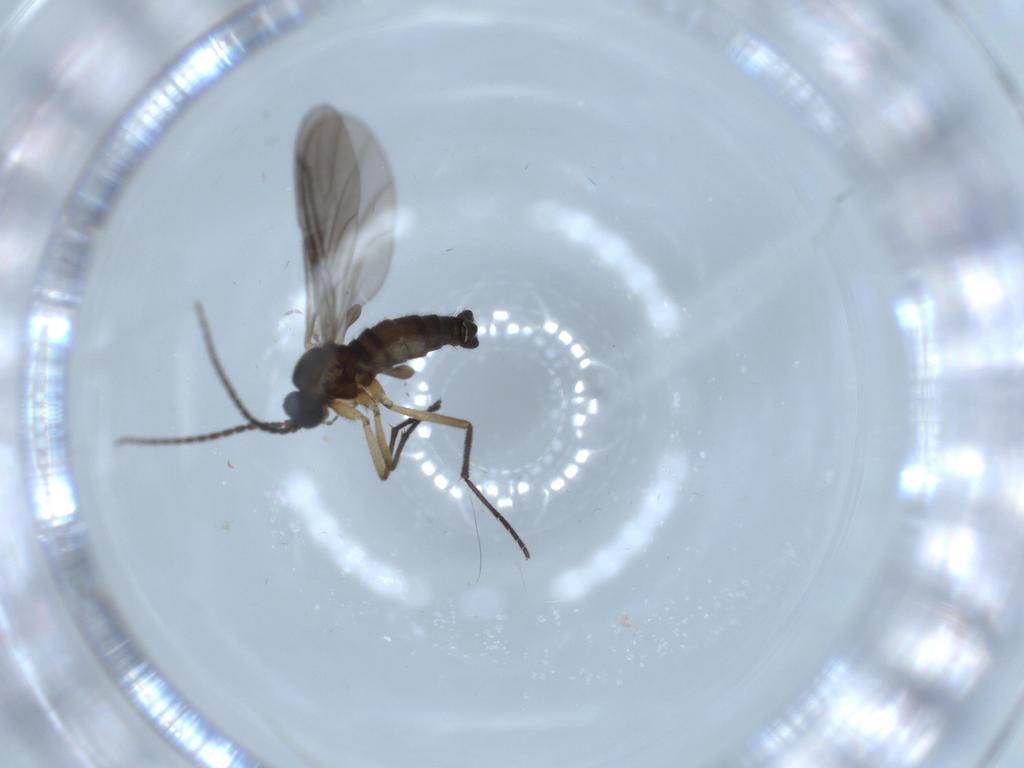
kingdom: Animalia
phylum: Arthropoda
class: Insecta
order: Diptera
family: Sciaridae
